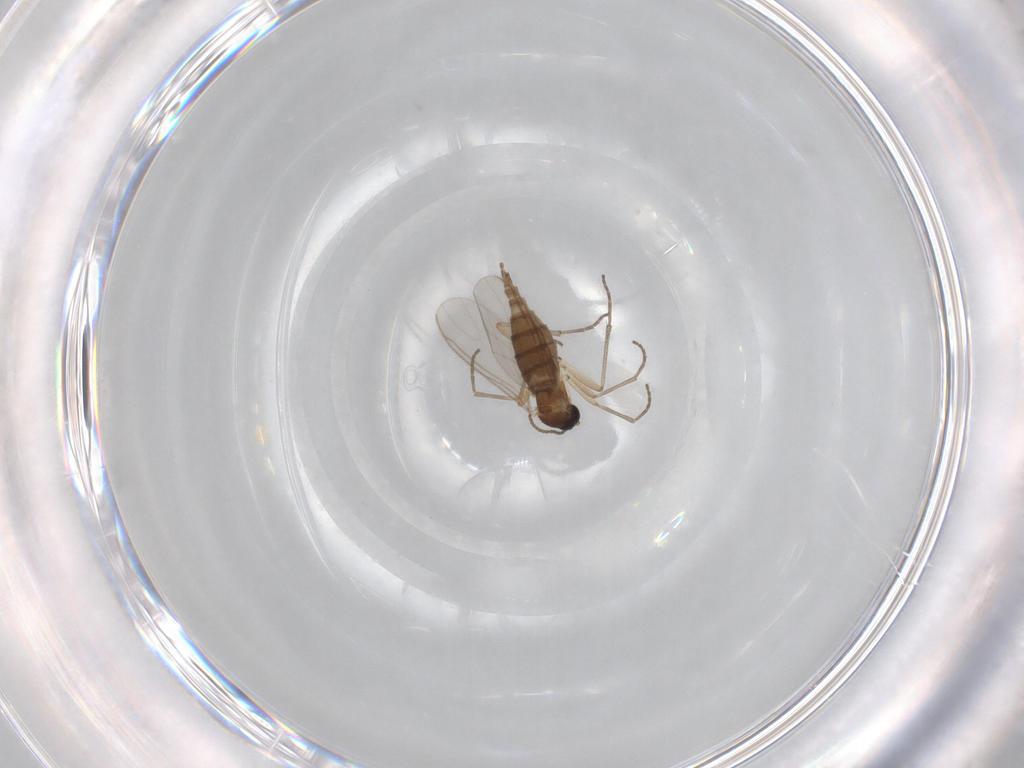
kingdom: Animalia
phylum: Arthropoda
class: Insecta
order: Diptera
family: Sciaridae
